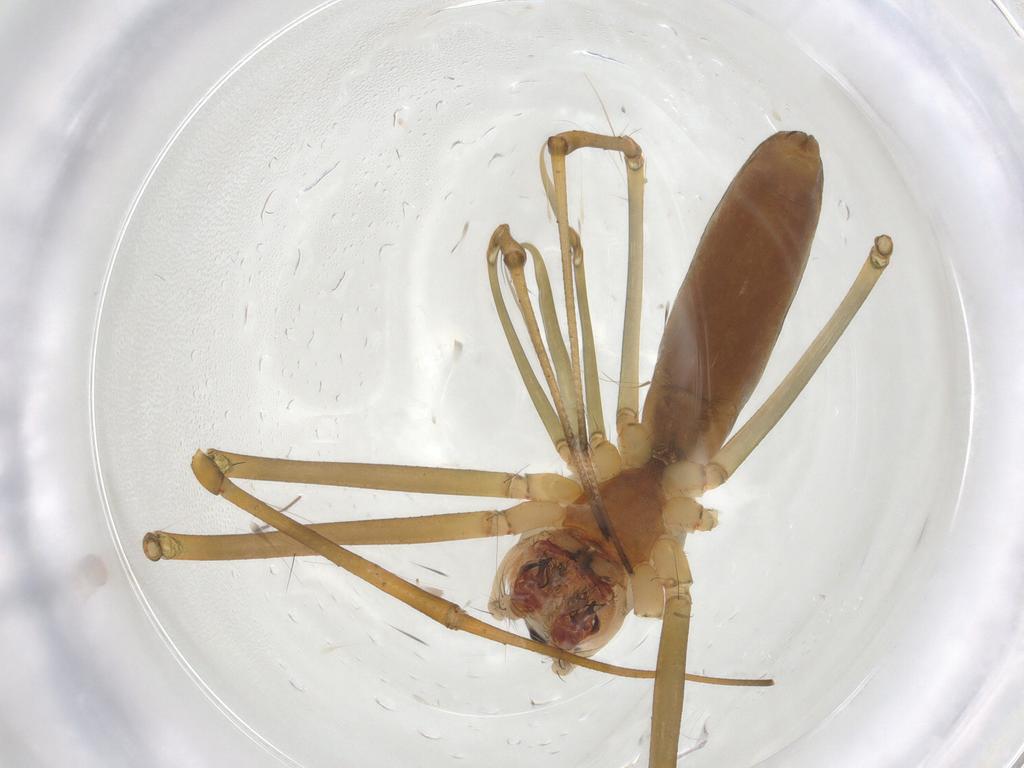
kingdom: Animalia
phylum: Arthropoda
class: Arachnida
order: Araneae
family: Linyphiidae
